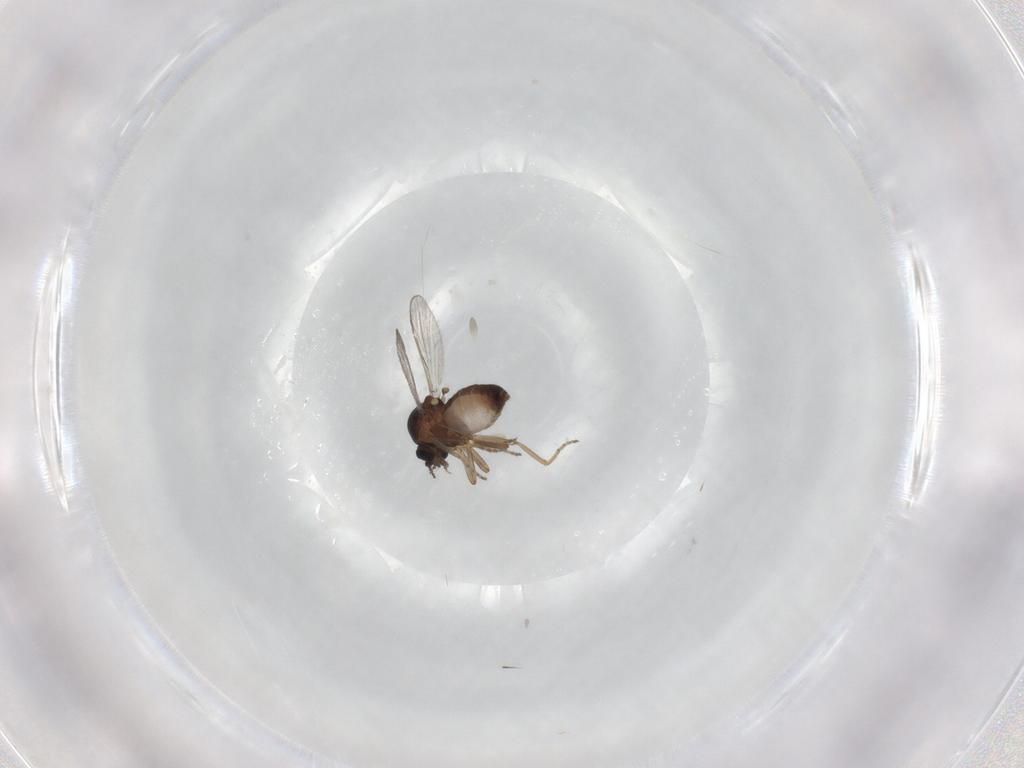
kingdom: Animalia
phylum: Arthropoda
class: Insecta
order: Diptera
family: Ceratopogonidae
